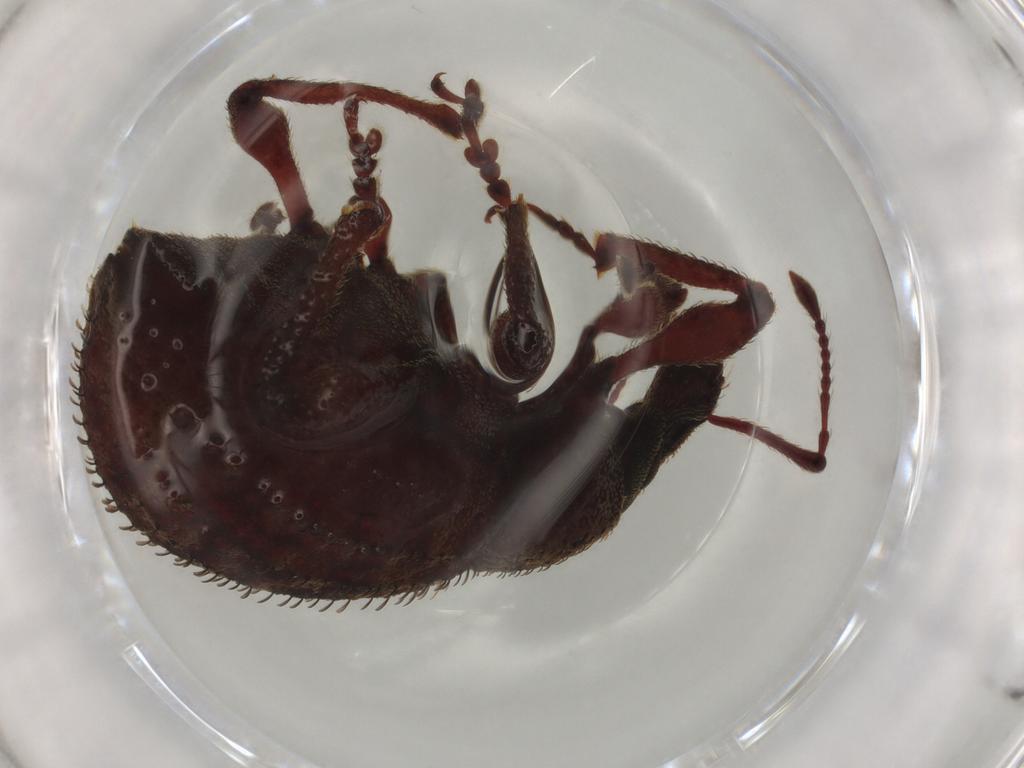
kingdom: Animalia
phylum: Arthropoda
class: Insecta
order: Coleoptera
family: Curculionidae
